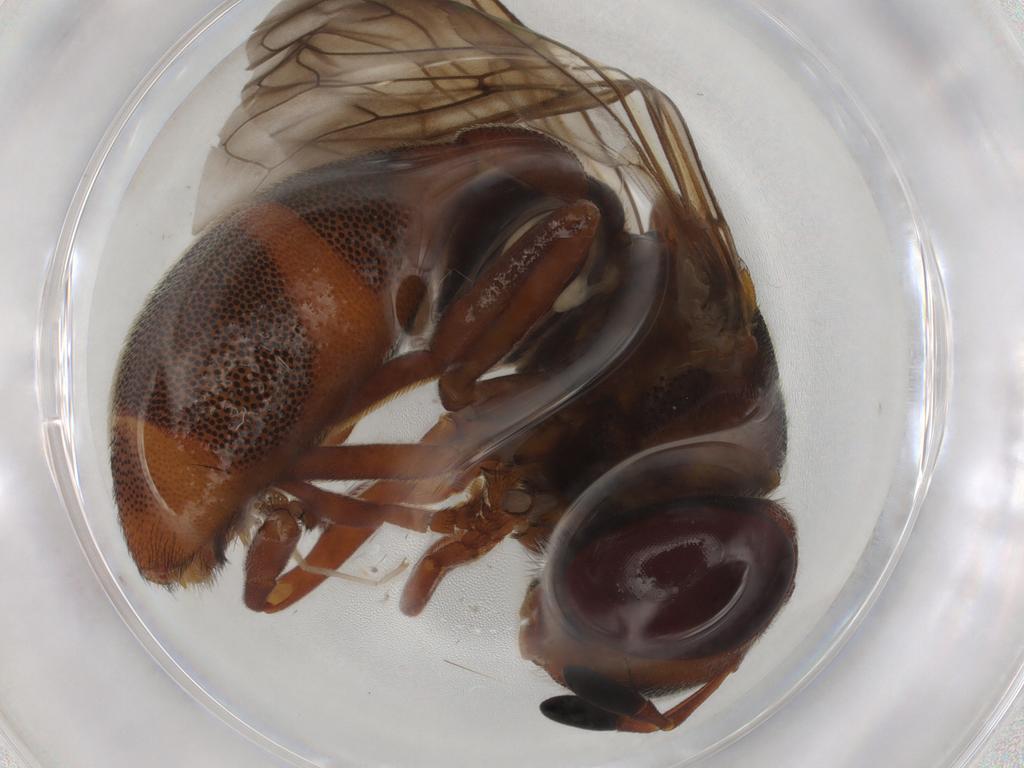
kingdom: Animalia
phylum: Arthropoda
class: Insecta
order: Diptera
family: Syrphidae
